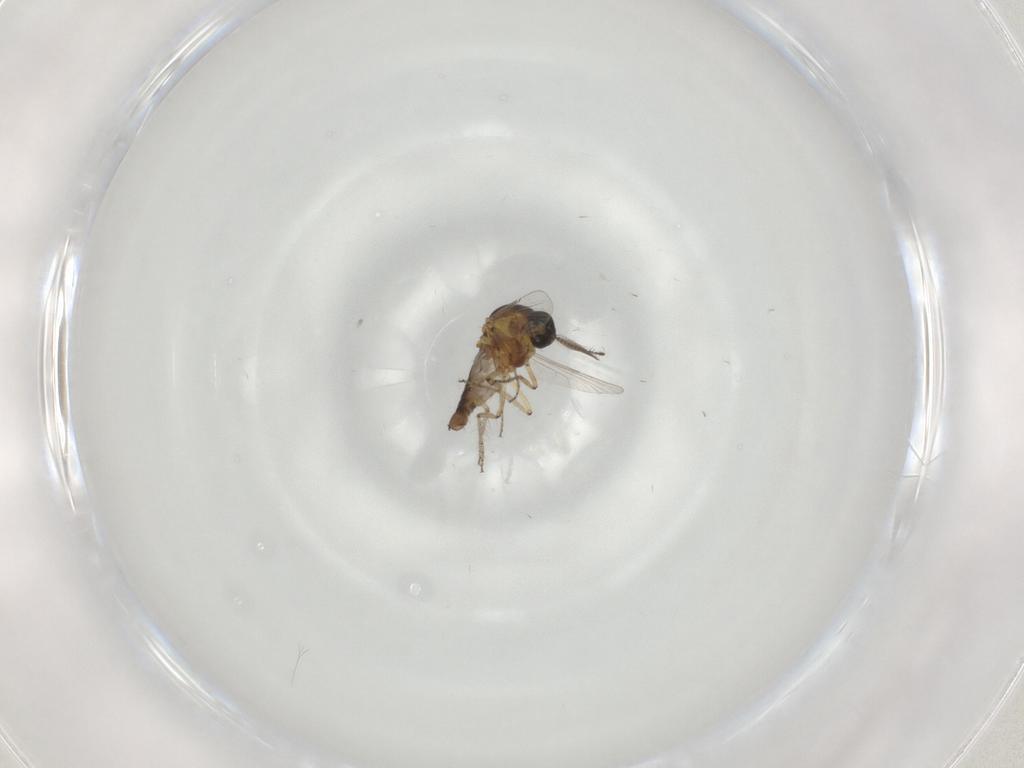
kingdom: Animalia
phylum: Arthropoda
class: Insecta
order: Diptera
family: Ceratopogonidae
